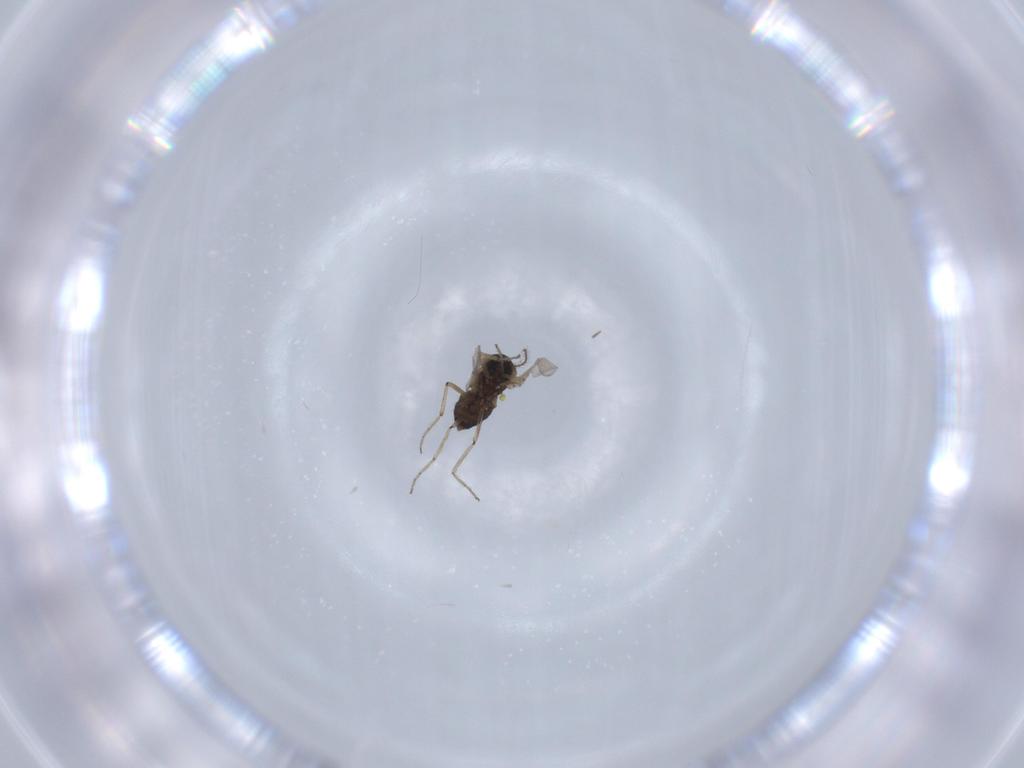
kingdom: Animalia
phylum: Arthropoda
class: Insecta
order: Diptera
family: Ceratopogonidae
